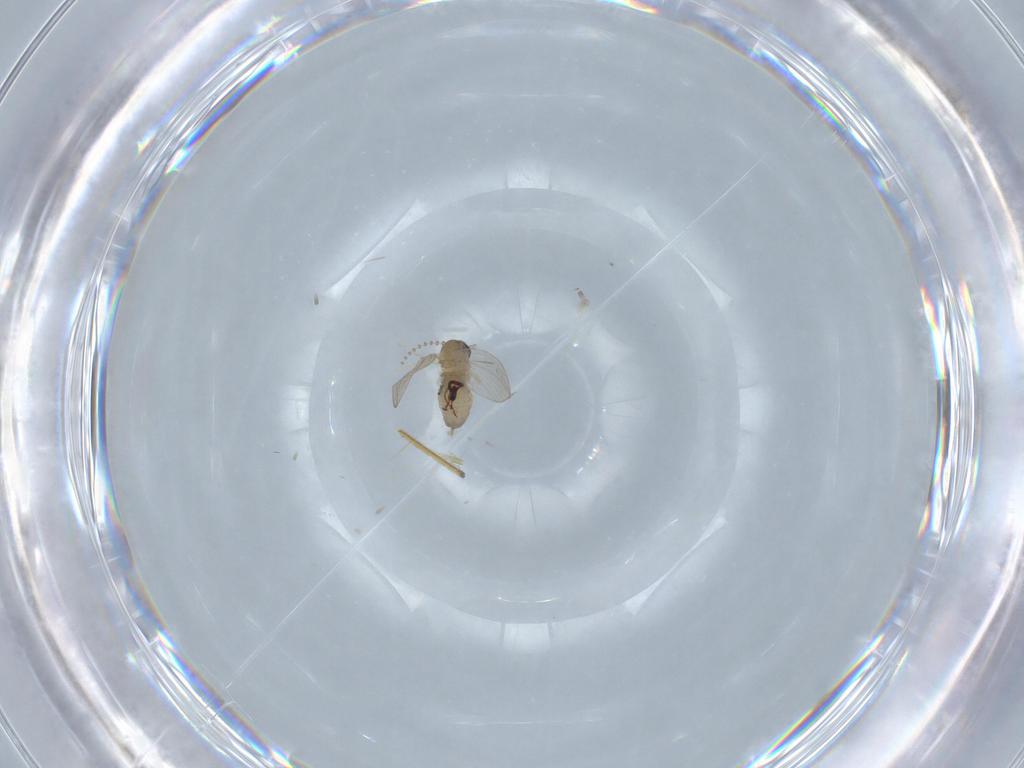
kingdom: Animalia
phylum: Arthropoda
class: Insecta
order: Diptera
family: Psychodidae
